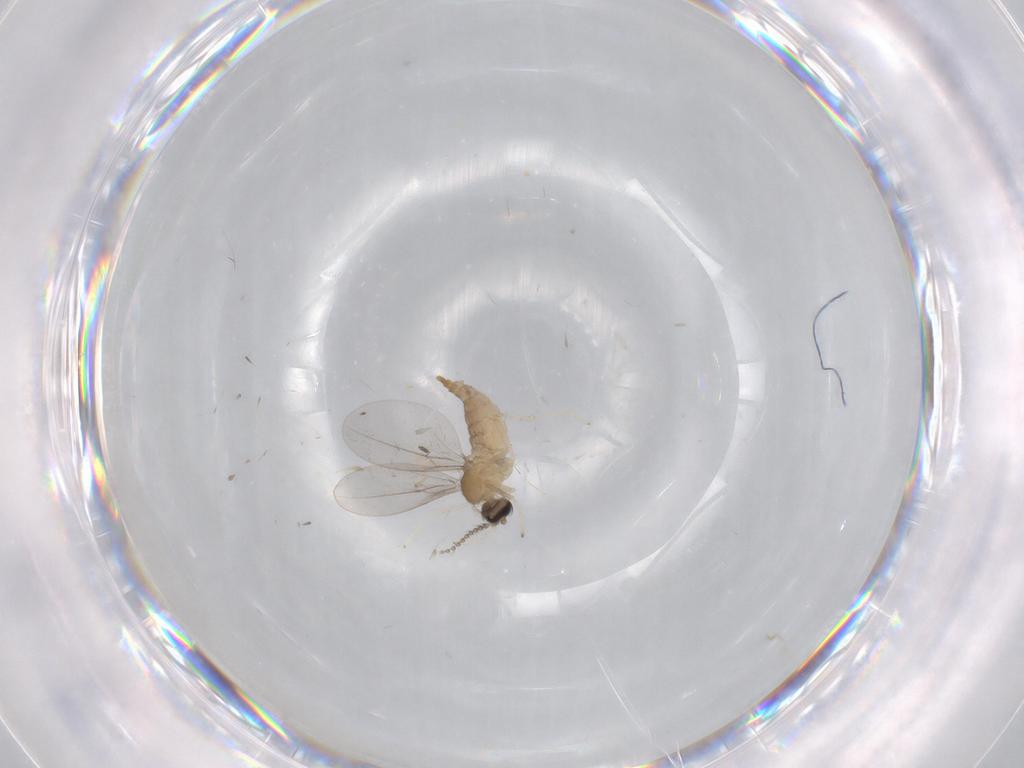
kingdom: Animalia
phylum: Arthropoda
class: Insecta
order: Diptera
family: Cecidomyiidae
